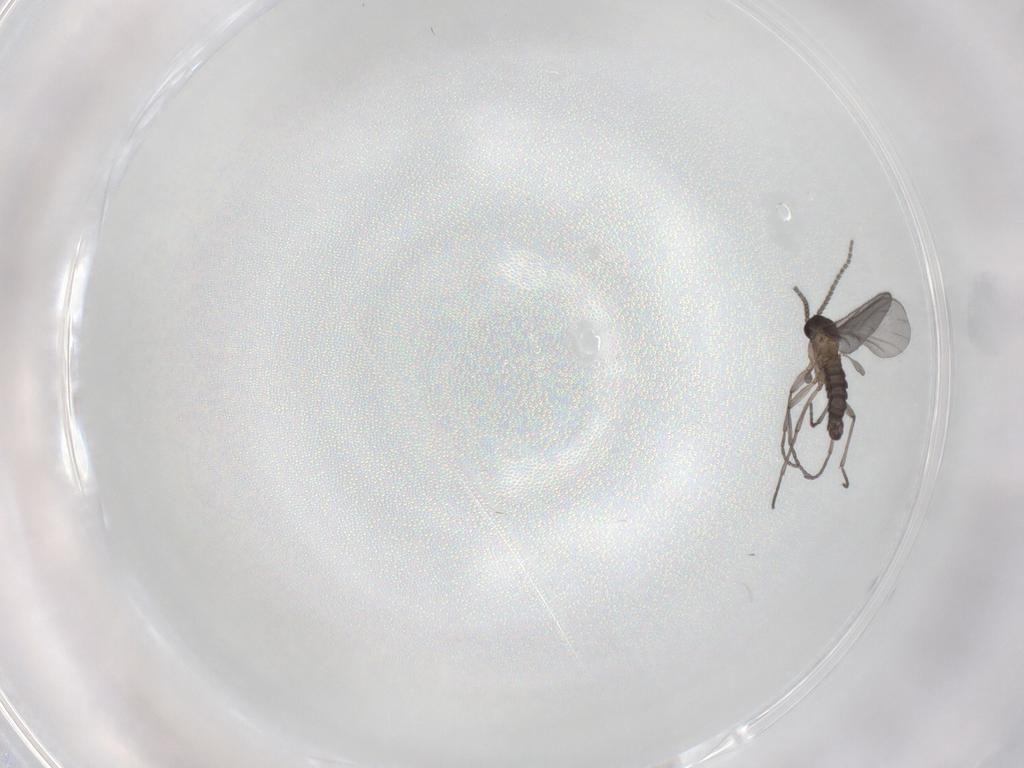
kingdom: Animalia
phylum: Arthropoda
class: Insecta
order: Diptera
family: Sciaridae
